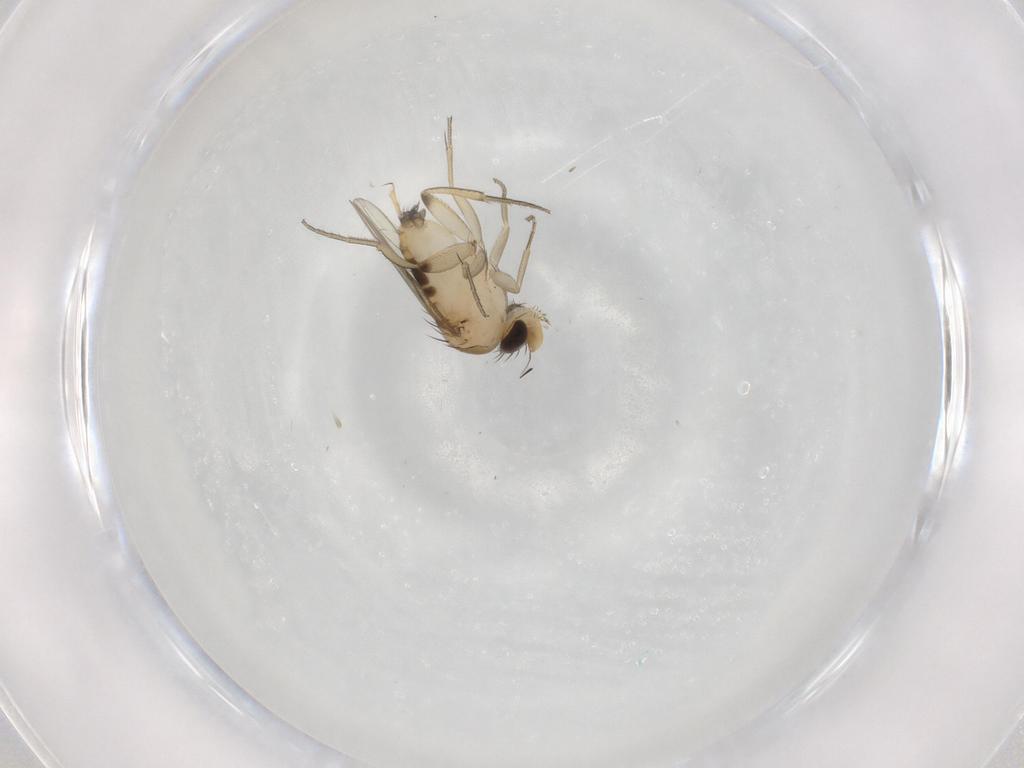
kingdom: Animalia
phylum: Arthropoda
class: Insecta
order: Diptera
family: Phoridae
